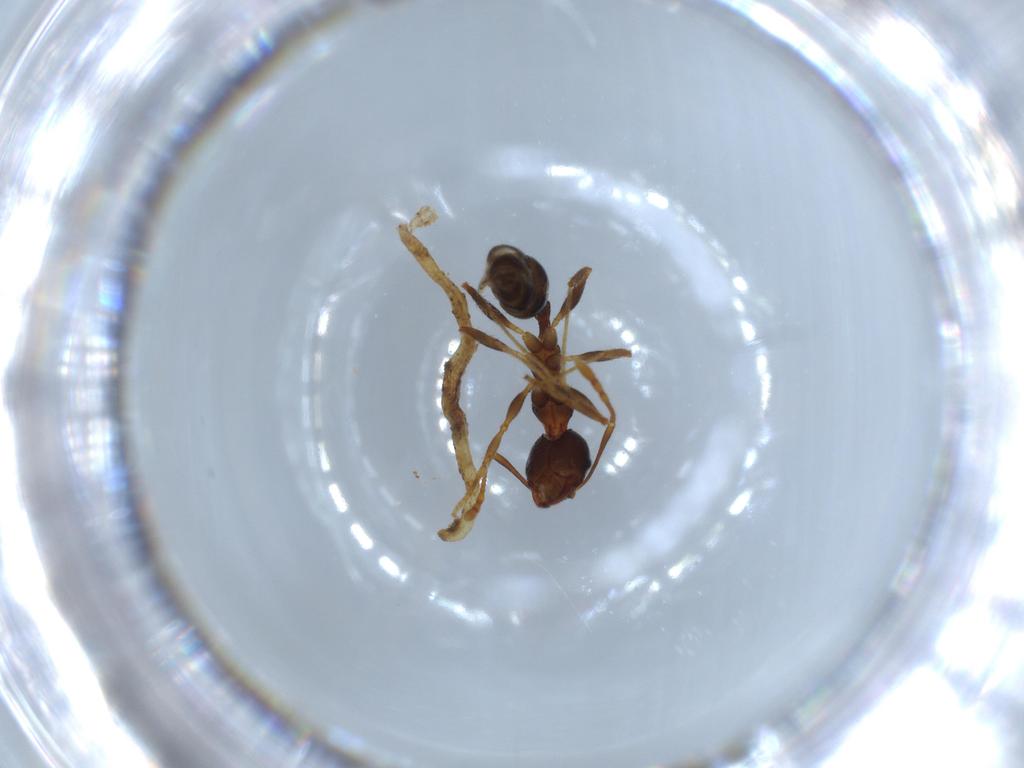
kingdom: Animalia
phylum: Arthropoda
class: Insecta
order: Hymenoptera
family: Formicidae
